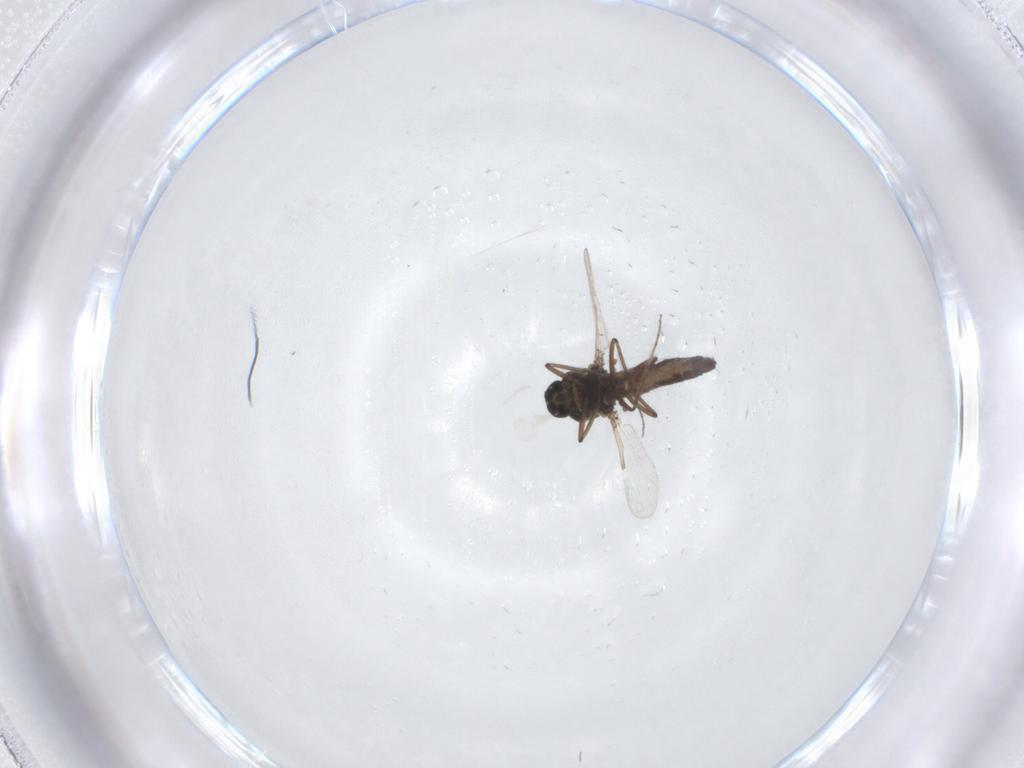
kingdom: Animalia
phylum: Arthropoda
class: Insecta
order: Diptera
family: Ceratopogonidae
